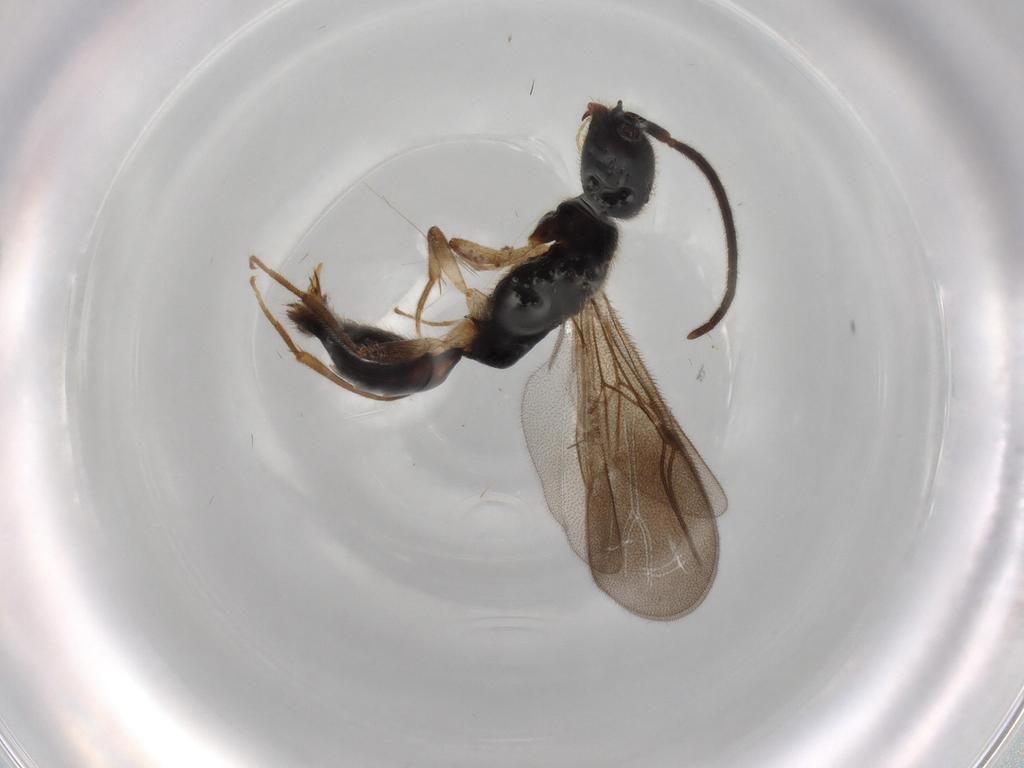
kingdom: Animalia
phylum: Arthropoda
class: Insecta
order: Hymenoptera
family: Bethylidae
